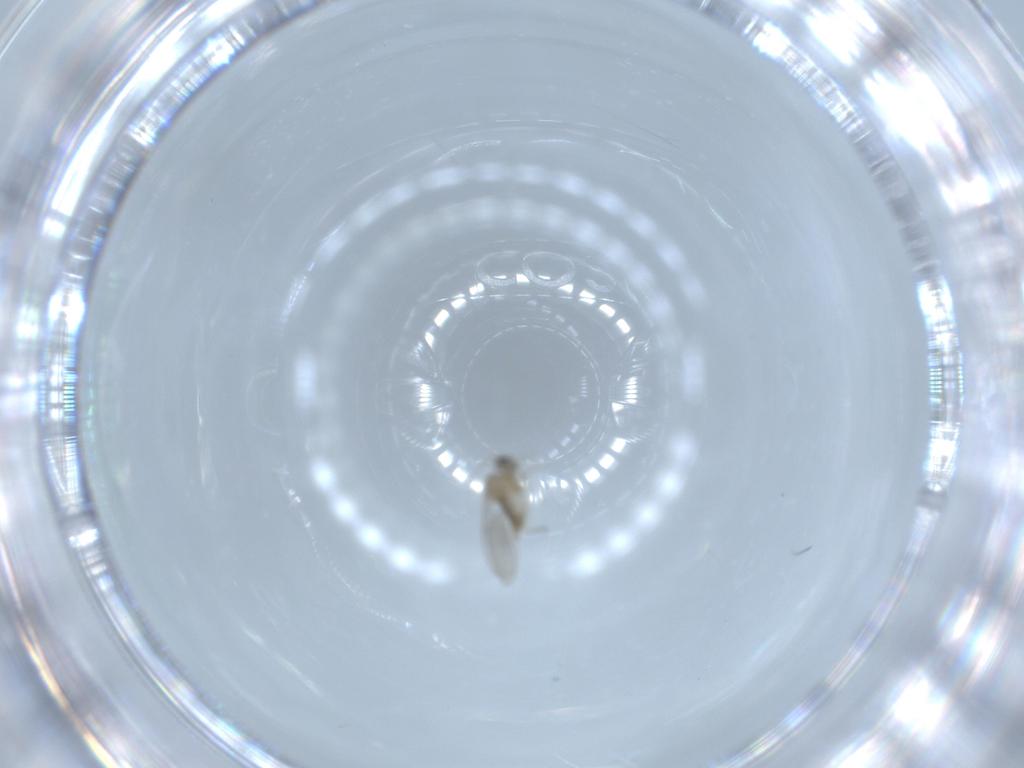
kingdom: Animalia
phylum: Arthropoda
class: Insecta
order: Diptera
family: Cecidomyiidae
